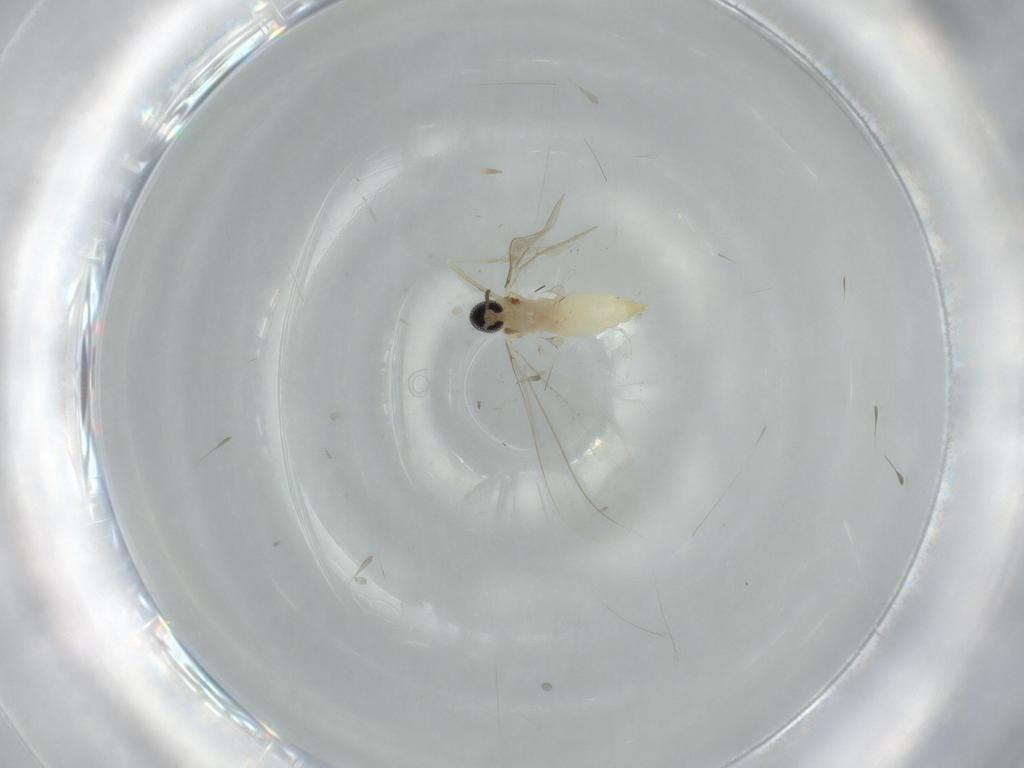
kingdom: Animalia
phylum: Arthropoda
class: Insecta
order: Diptera
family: Cecidomyiidae
